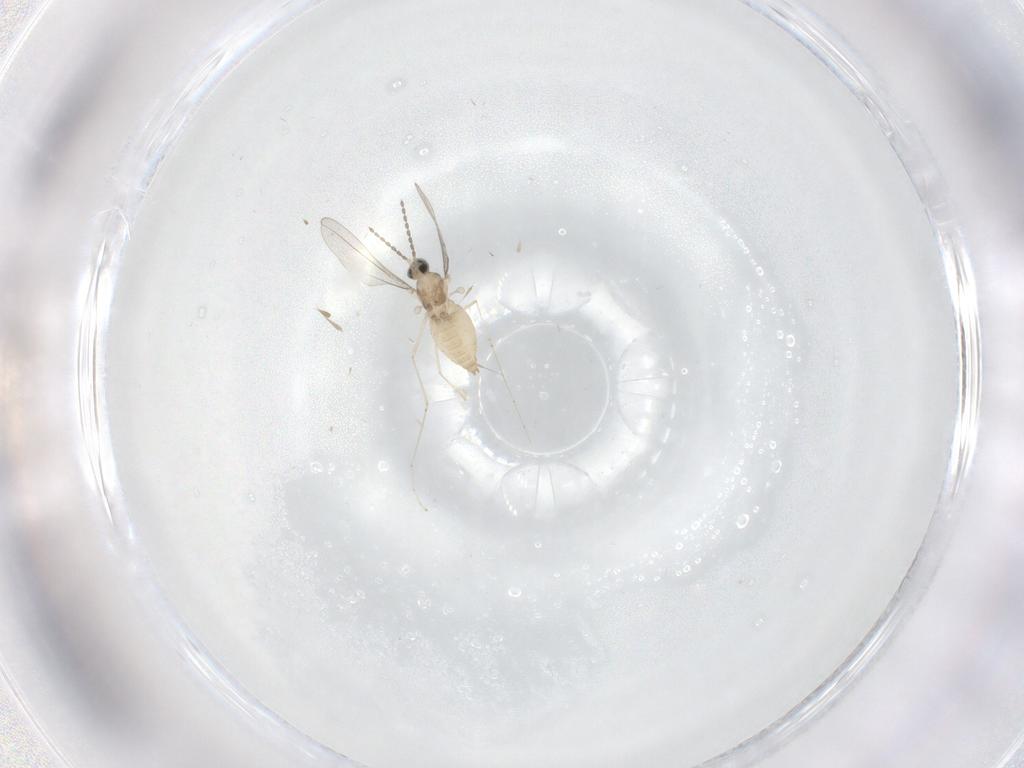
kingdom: Animalia
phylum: Arthropoda
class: Insecta
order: Diptera
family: Cecidomyiidae
